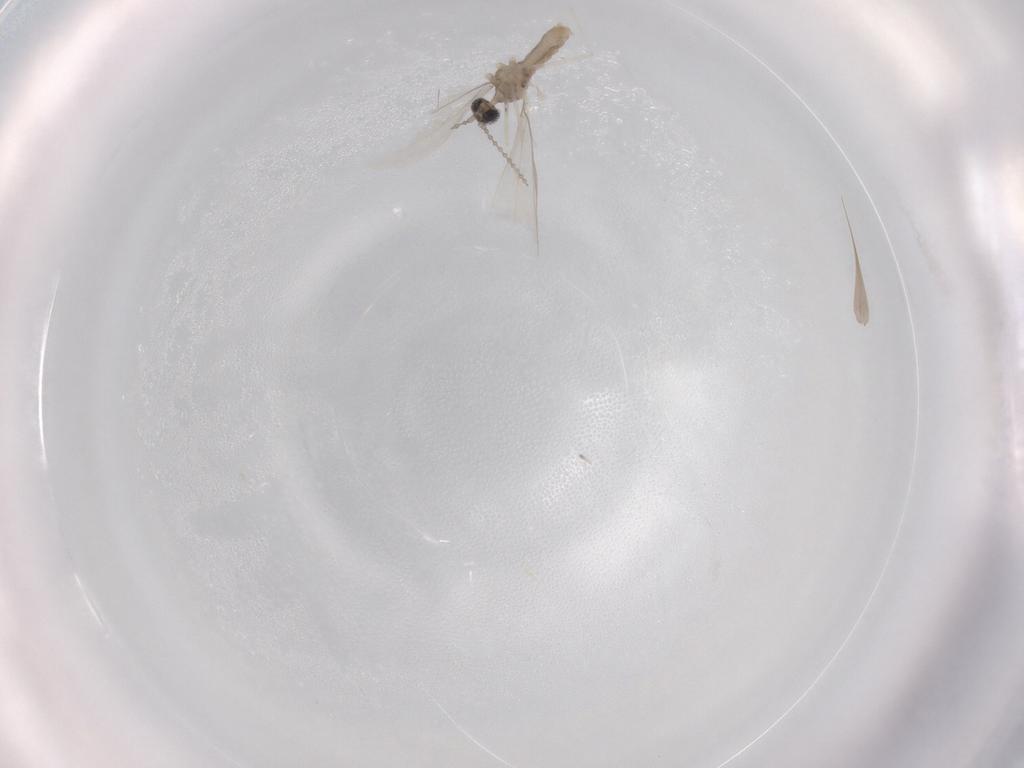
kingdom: Animalia
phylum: Arthropoda
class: Insecta
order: Diptera
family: Cecidomyiidae
